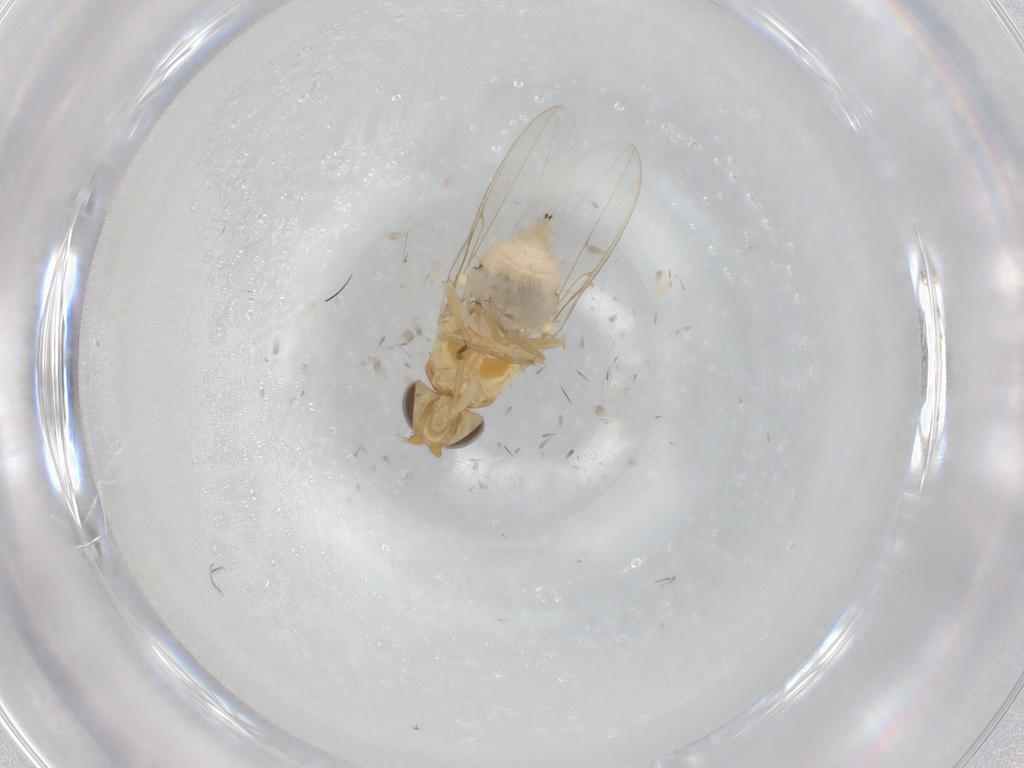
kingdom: Animalia
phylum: Arthropoda
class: Insecta
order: Diptera
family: Asteiidae
